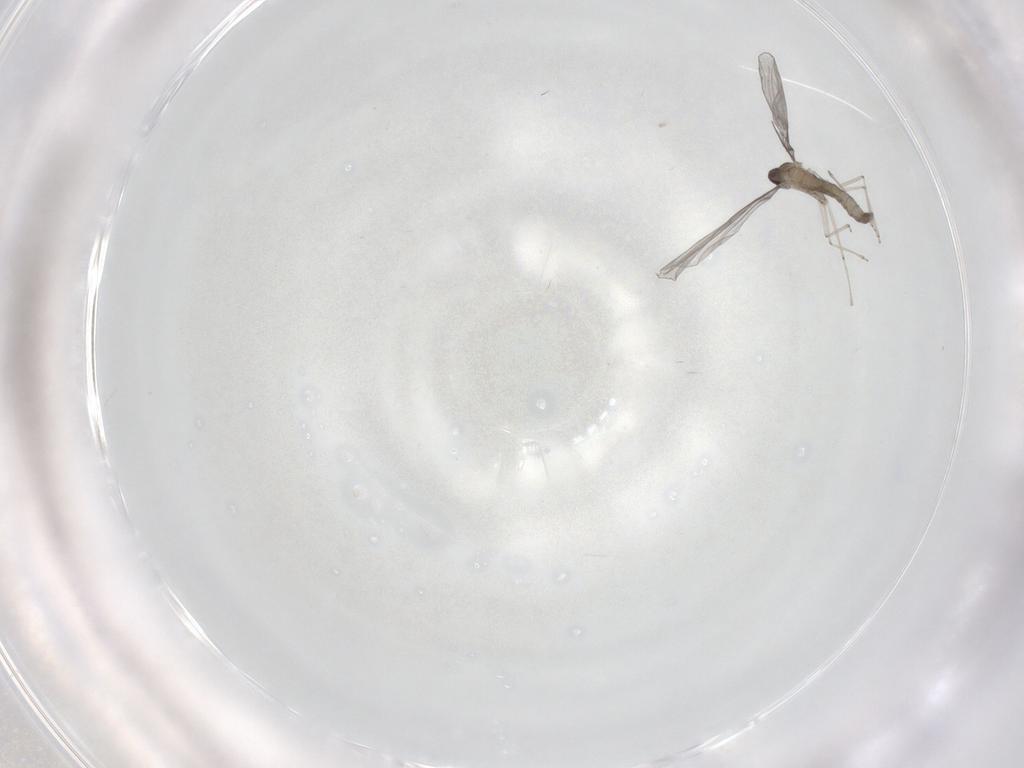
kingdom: Animalia
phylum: Arthropoda
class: Insecta
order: Diptera
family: Cecidomyiidae
